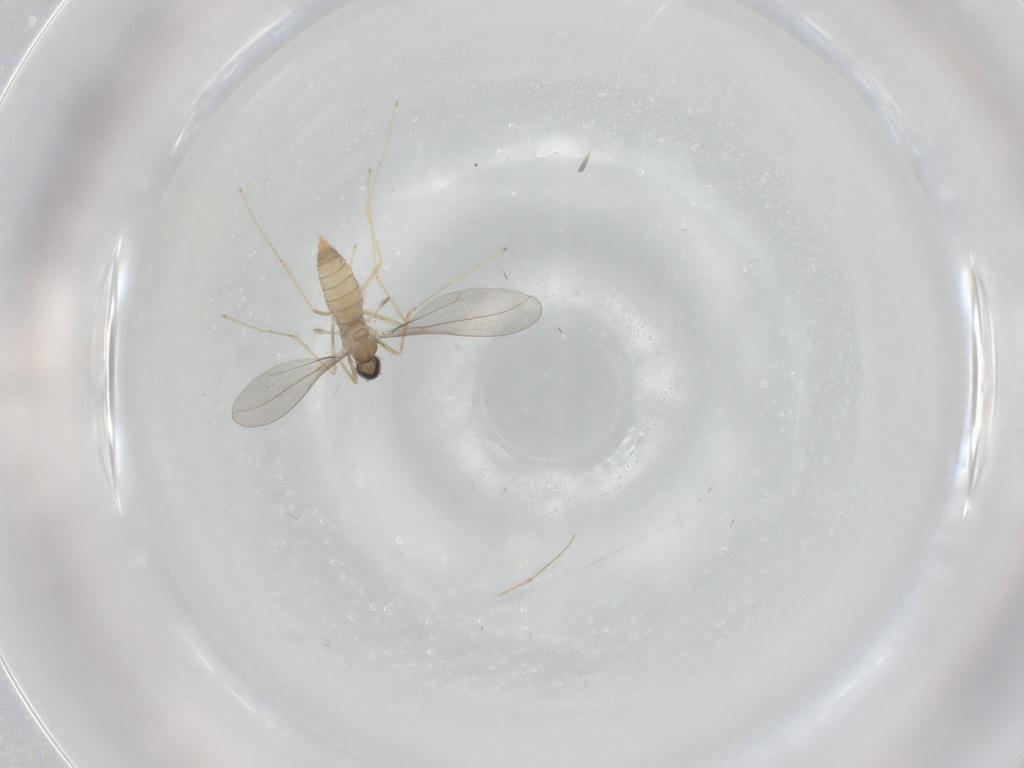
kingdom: Animalia
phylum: Arthropoda
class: Insecta
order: Diptera
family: Cecidomyiidae
